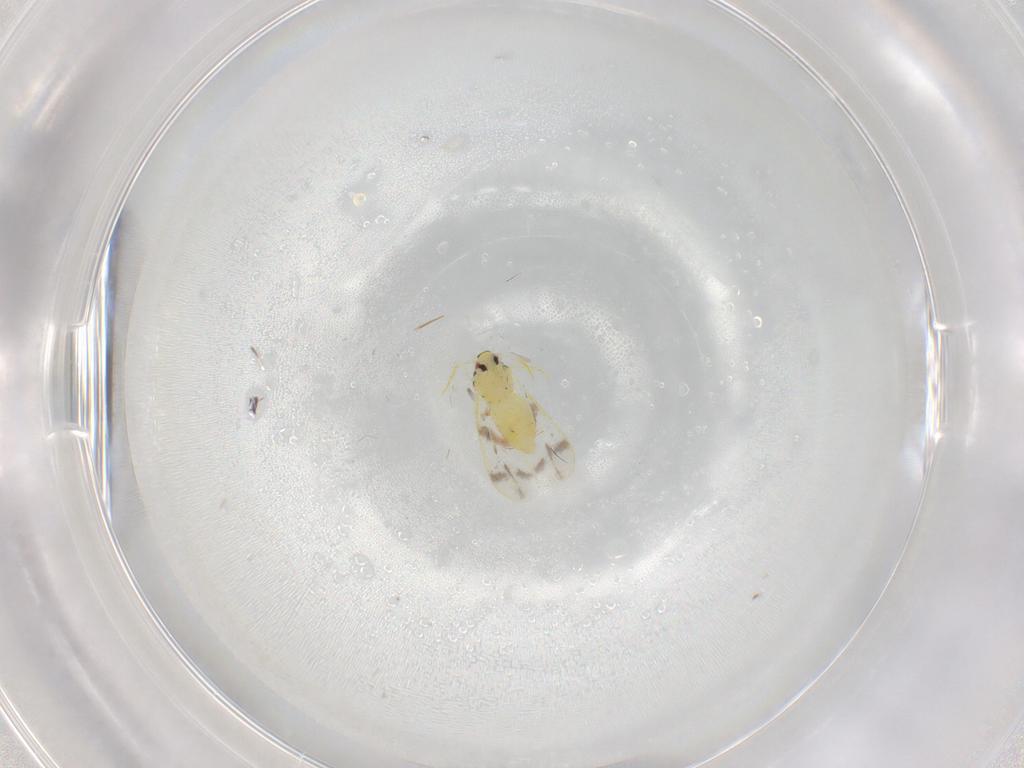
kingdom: Animalia
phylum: Arthropoda
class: Insecta
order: Hemiptera
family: Aleyrodidae
